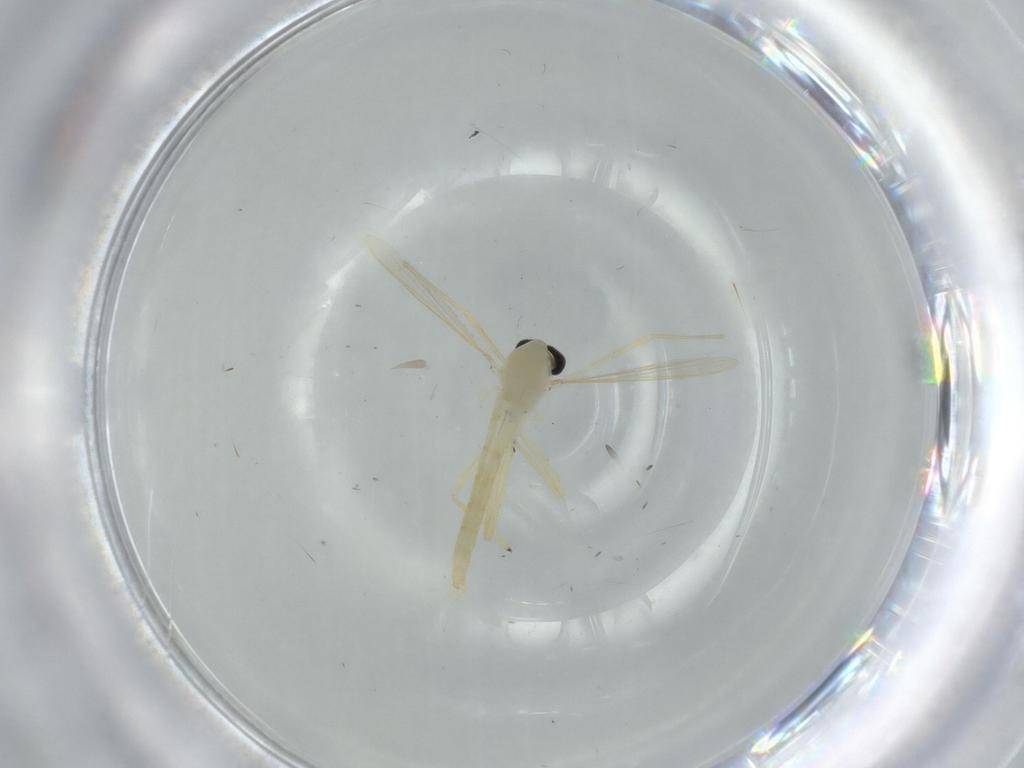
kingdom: Animalia
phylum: Arthropoda
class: Insecta
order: Diptera
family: Chironomidae
